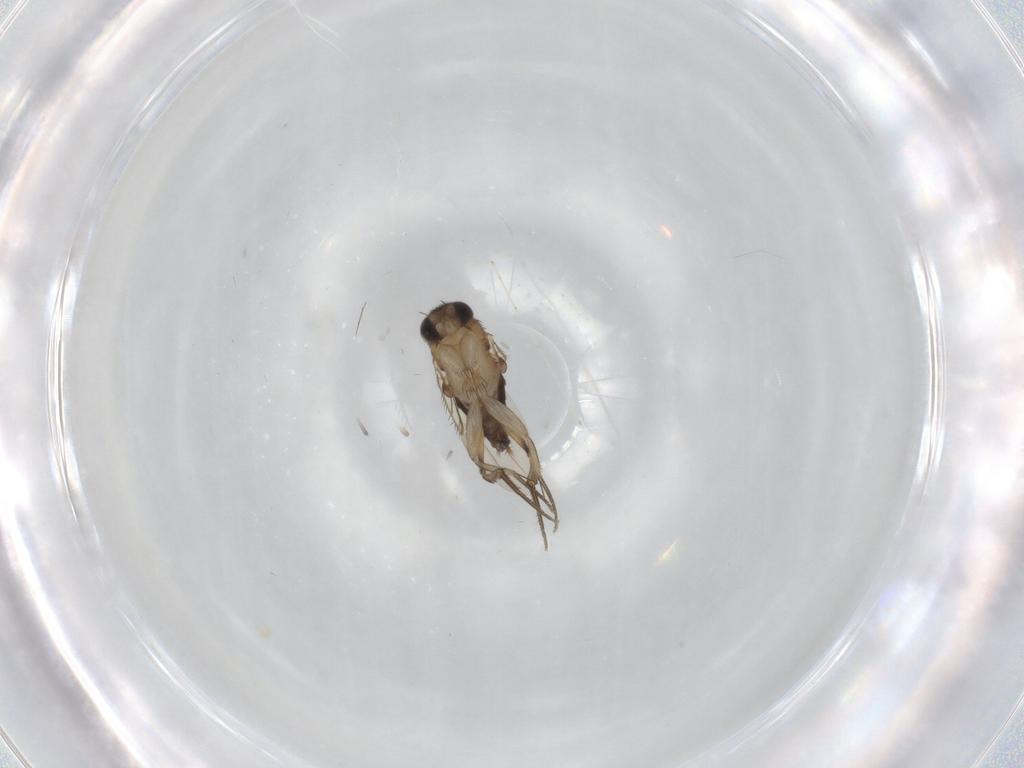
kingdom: Animalia
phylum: Arthropoda
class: Insecta
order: Diptera
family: Phoridae
